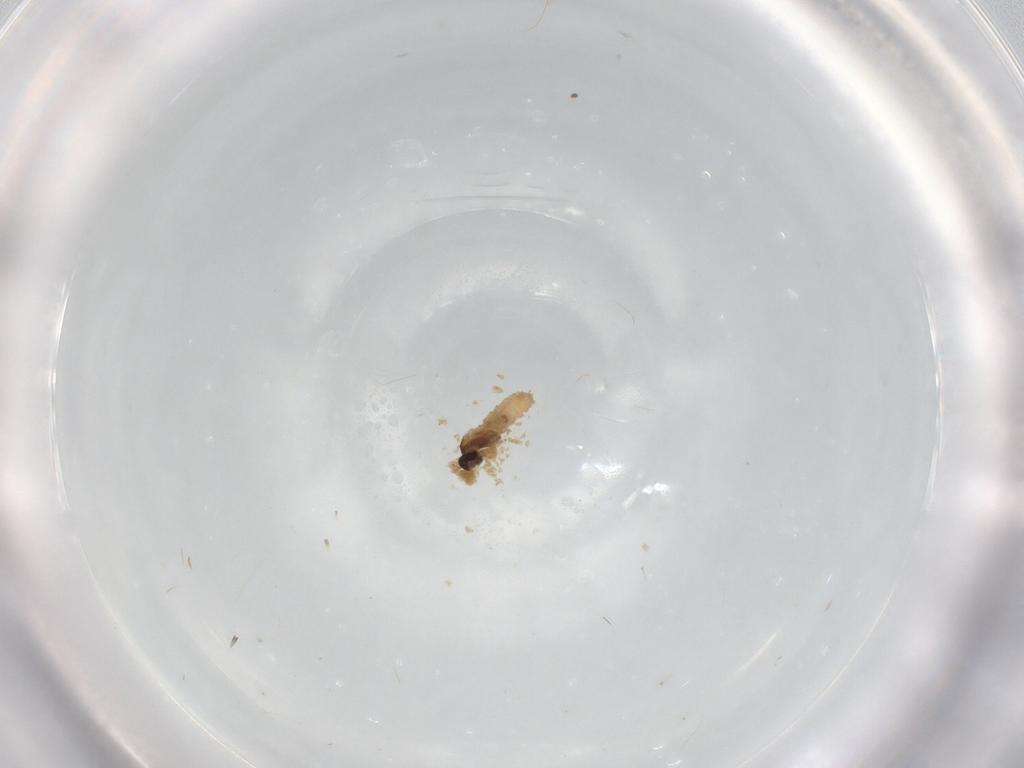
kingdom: Animalia
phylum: Arthropoda
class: Insecta
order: Diptera
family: Cecidomyiidae
